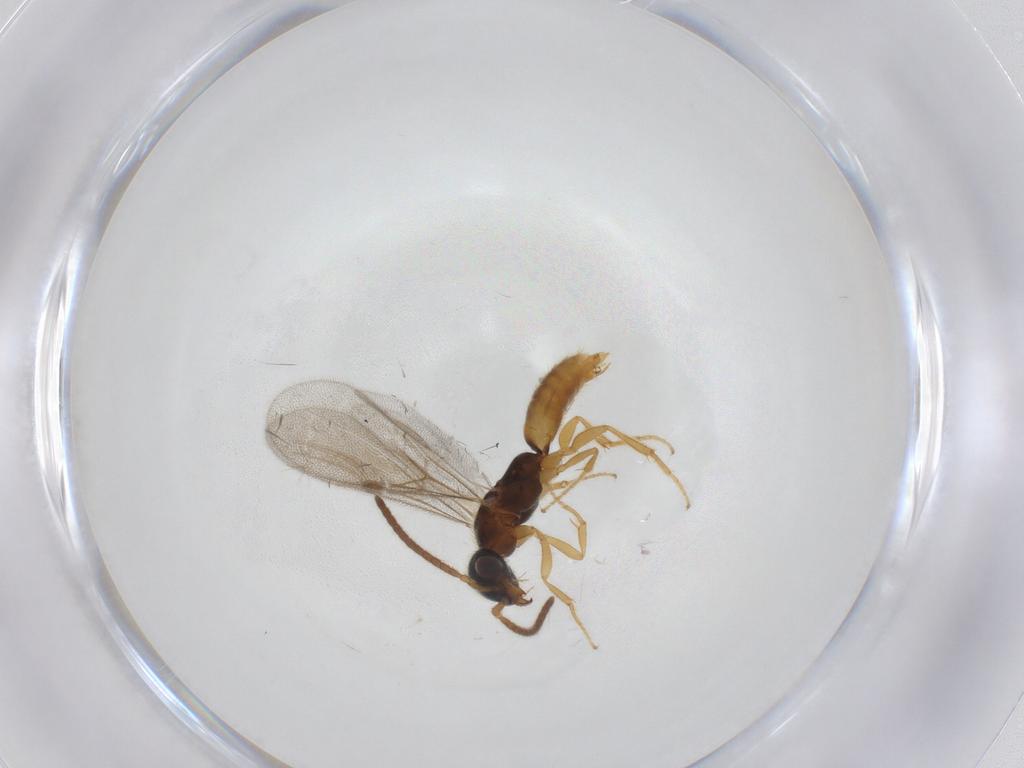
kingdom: Animalia
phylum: Arthropoda
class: Insecta
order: Hymenoptera
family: Bethylidae
